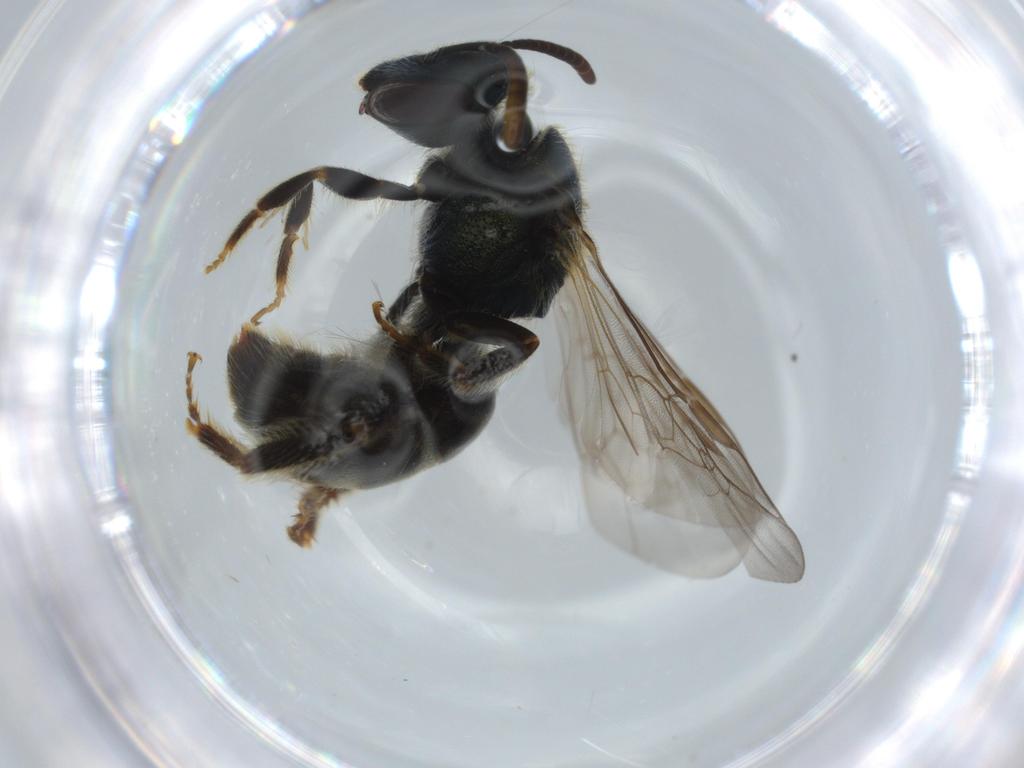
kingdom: Animalia
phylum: Arthropoda
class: Insecta
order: Hymenoptera
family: Halictidae
